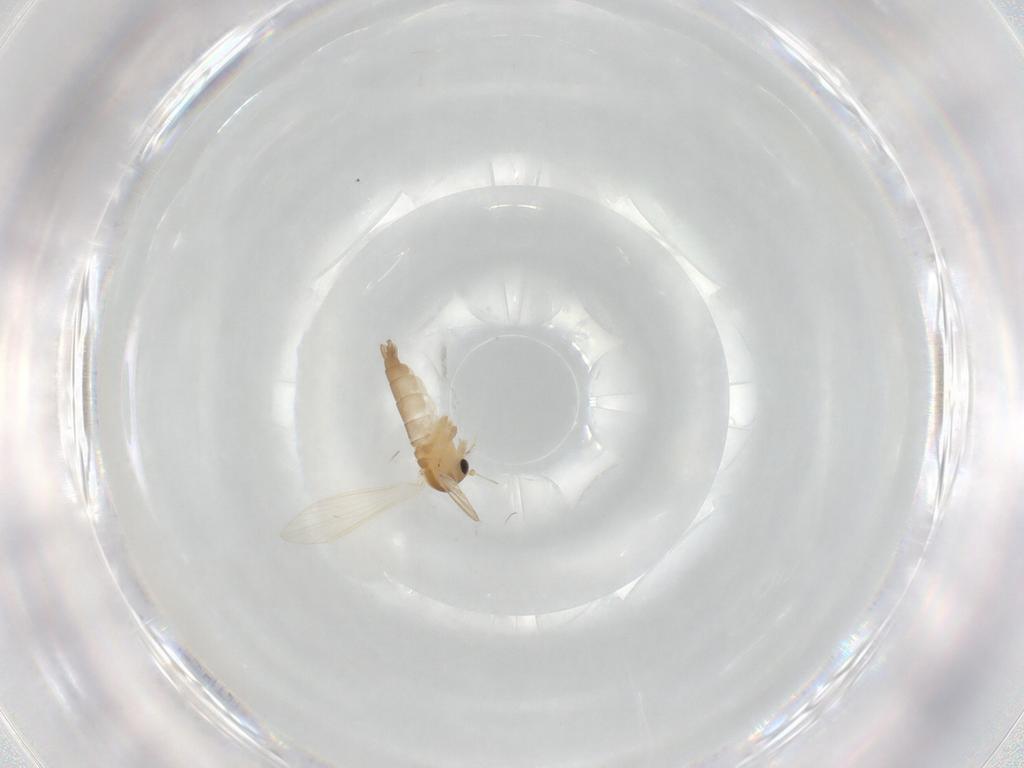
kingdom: Animalia
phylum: Arthropoda
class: Insecta
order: Diptera
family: Psychodidae
